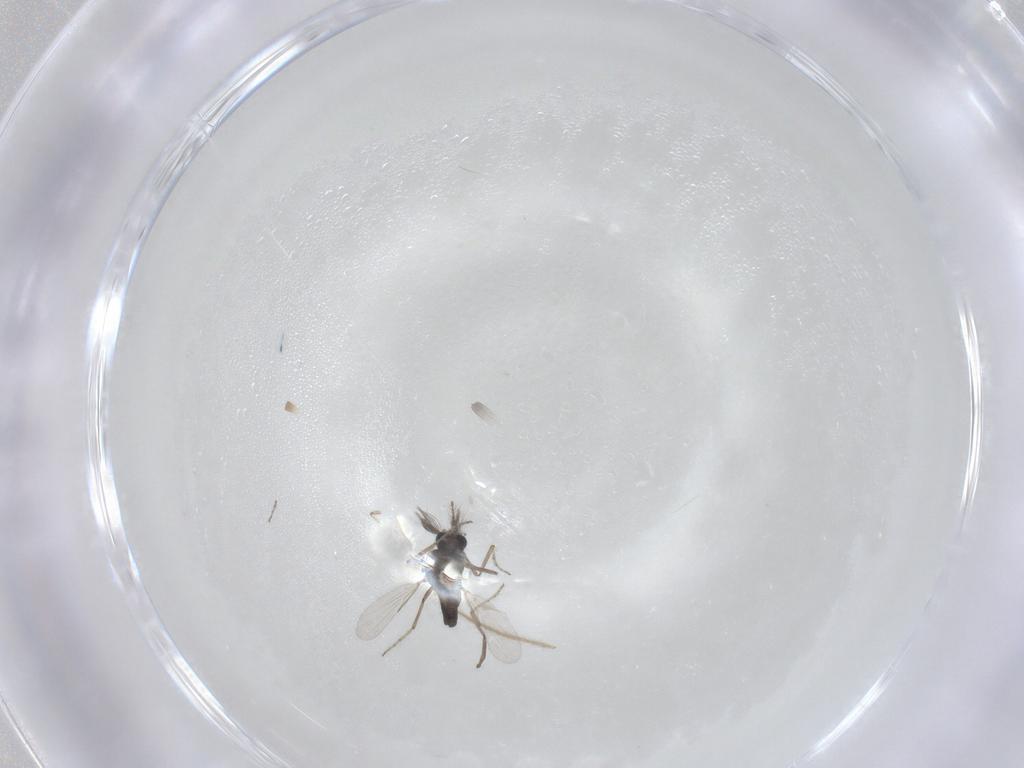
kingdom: Animalia
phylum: Arthropoda
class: Insecta
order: Diptera
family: Ceratopogonidae
